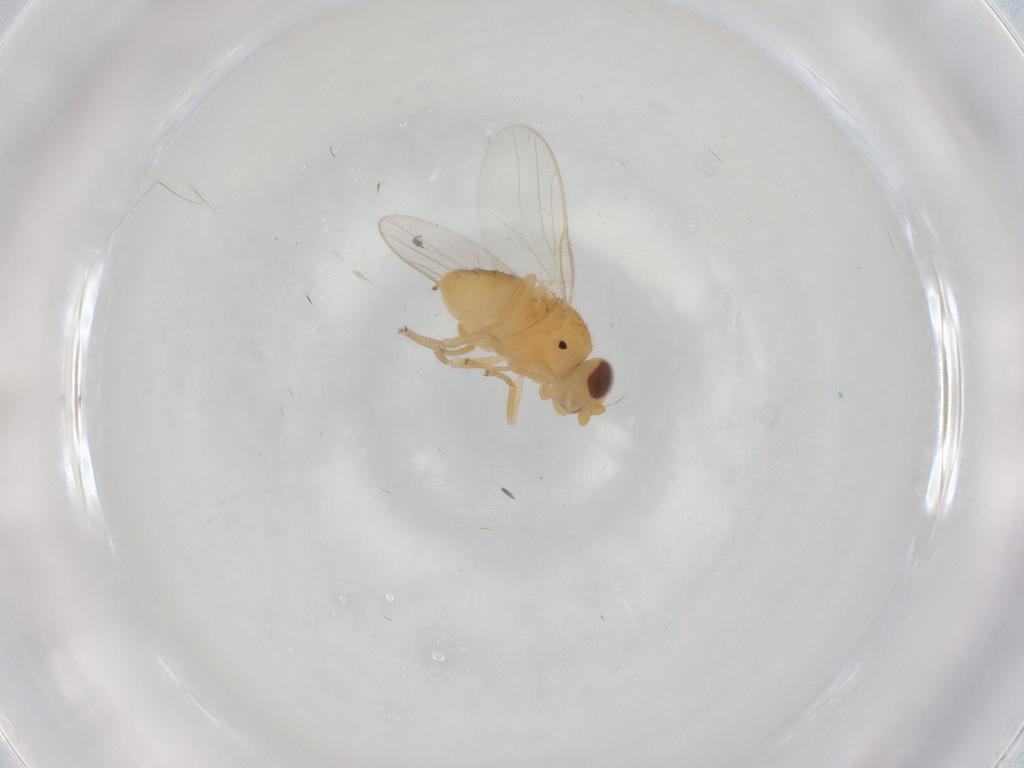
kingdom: Animalia
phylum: Arthropoda
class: Insecta
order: Diptera
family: Chloropidae
